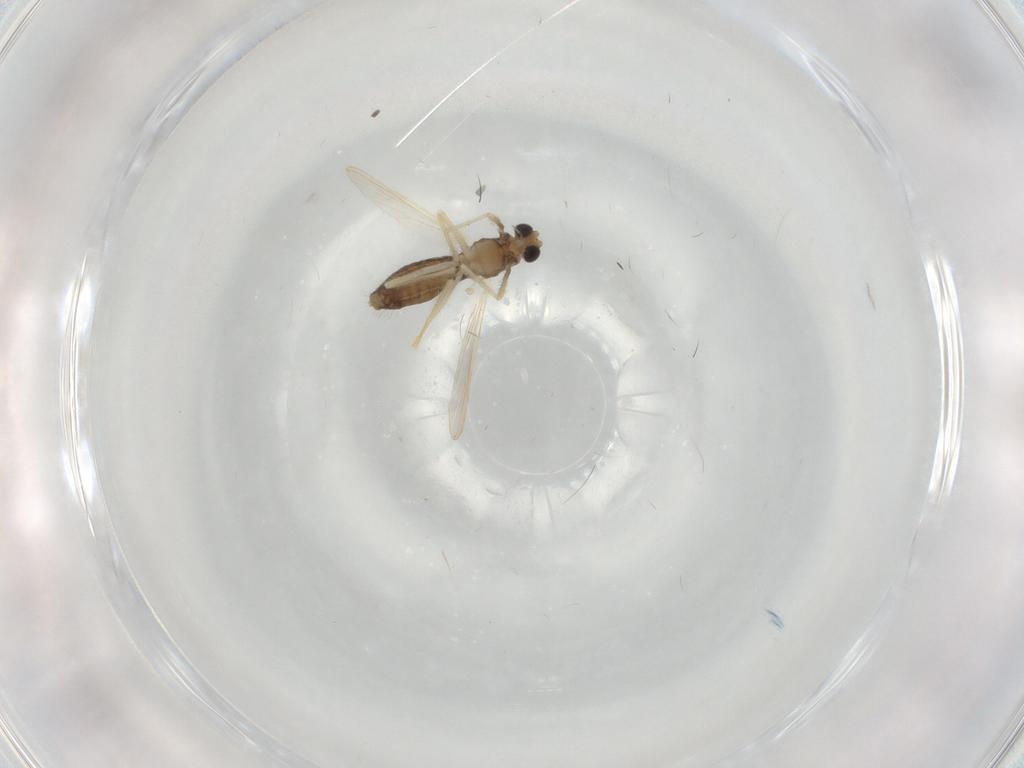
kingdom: Animalia
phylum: Arthropoda
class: Insecta
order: Diptera
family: Chironomidae
